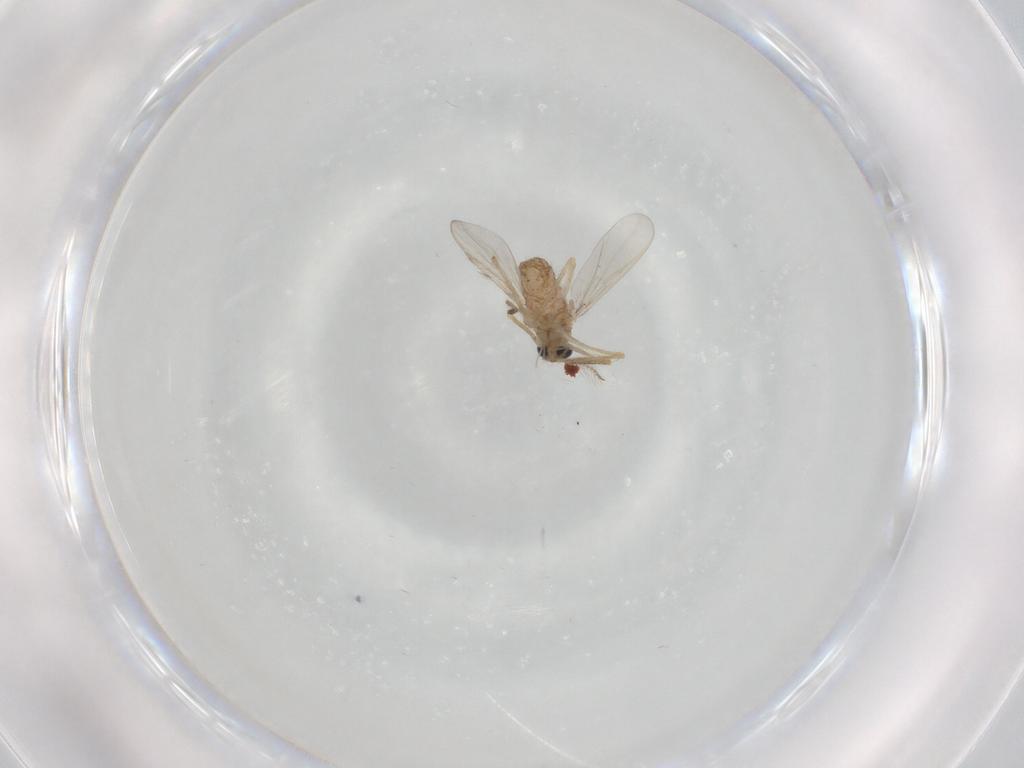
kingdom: Animalia
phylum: Arthropoda
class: Insecta
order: Diptera
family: Chironomidae
